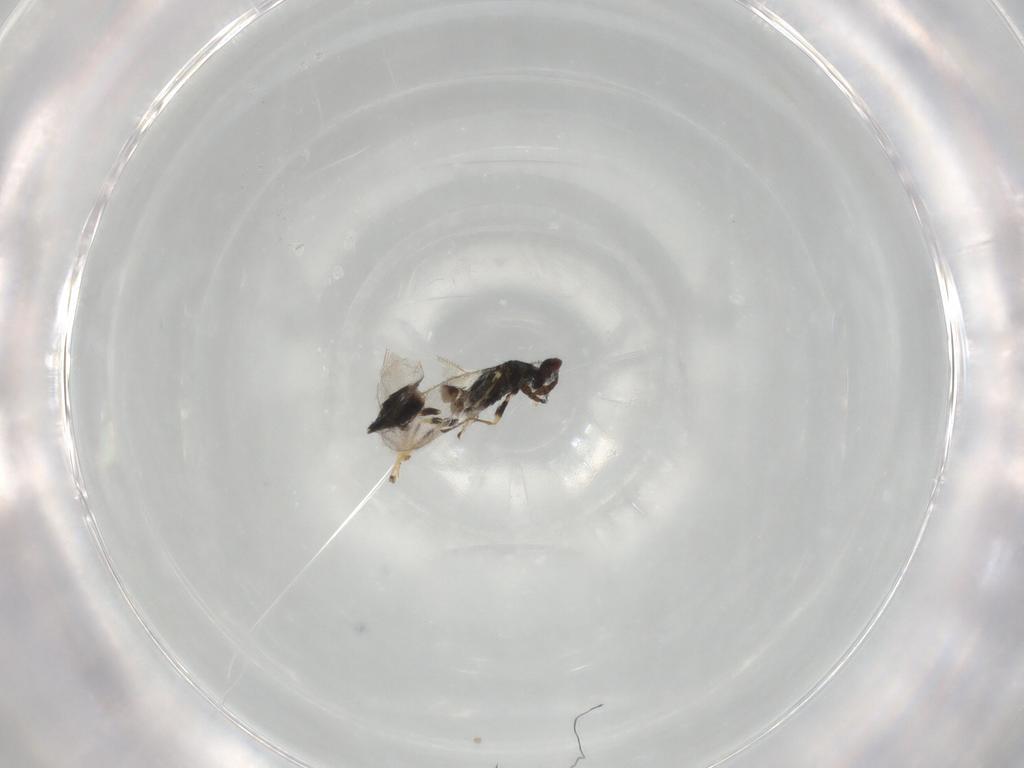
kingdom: Animalia
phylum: Arthropoda
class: Insecta
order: Hymenoptera
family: Eulophidae
